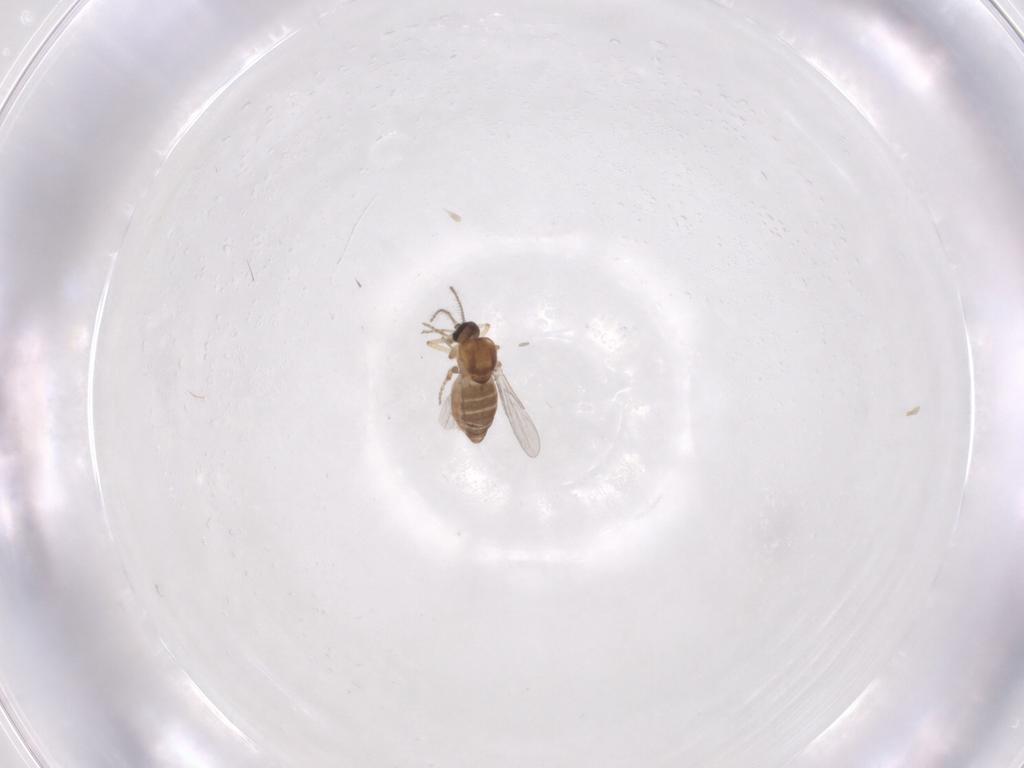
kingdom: Animalia
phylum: Arthropoda
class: Insecta
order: Diptera
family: Ceratopogonidae
